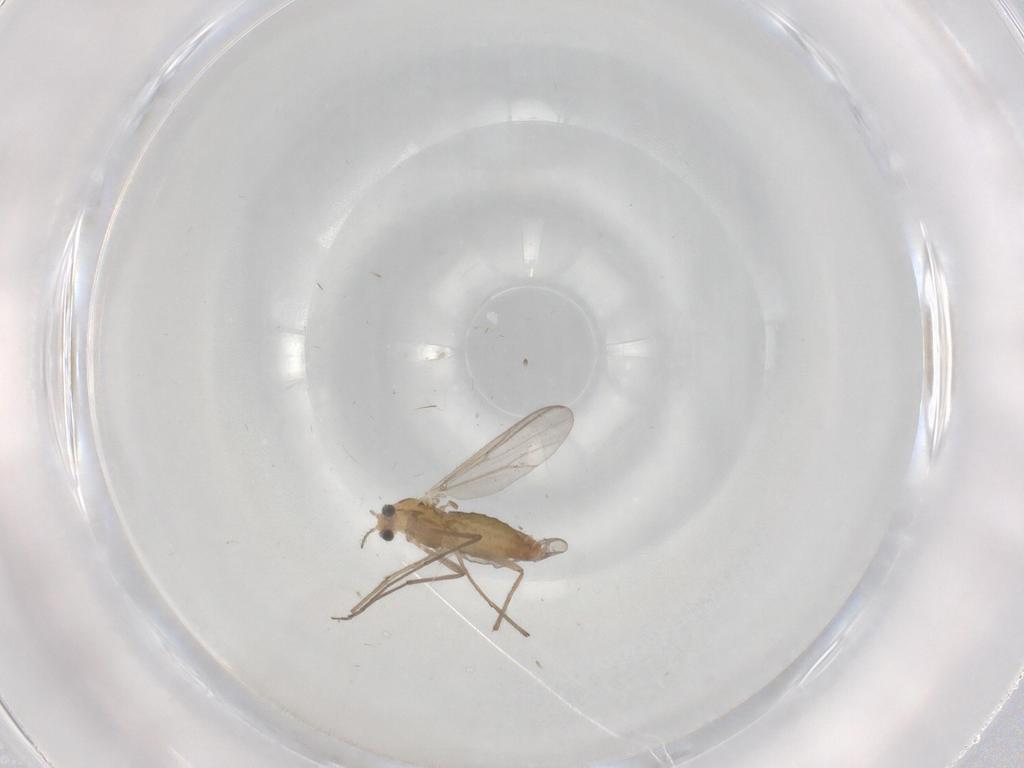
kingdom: Animalia
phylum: Arthropoda
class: Insecta
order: Diptera
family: Chironomidae
